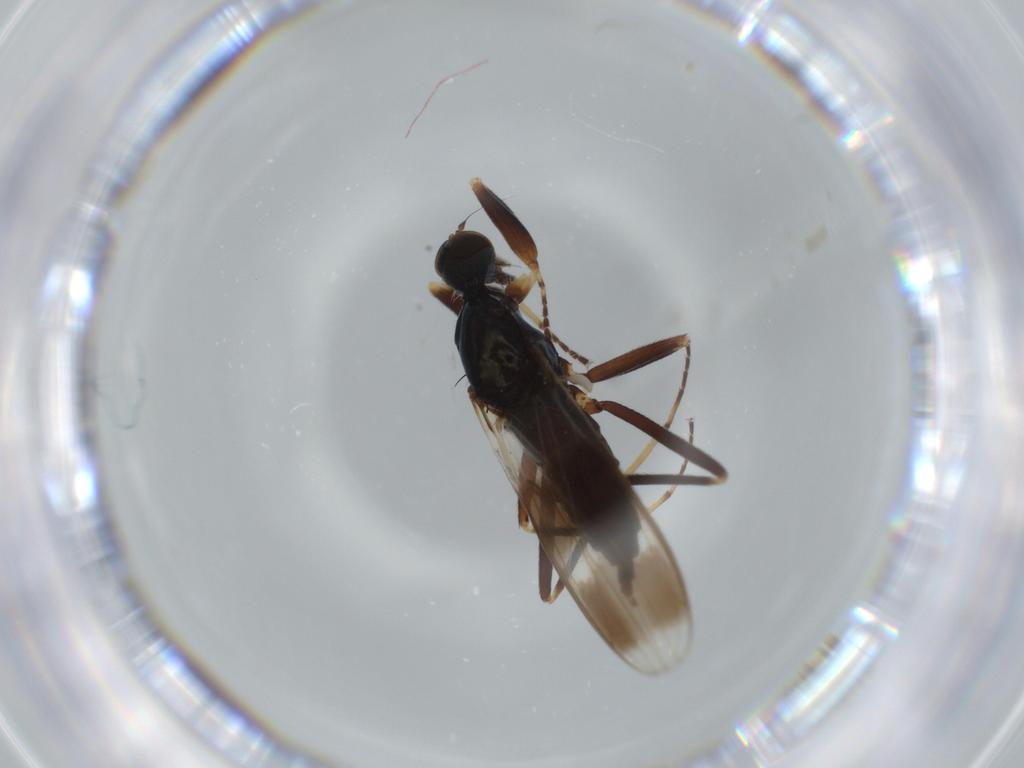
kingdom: Animalia
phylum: Arthropoda
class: Insecta
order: Diptera
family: Hybotidae
